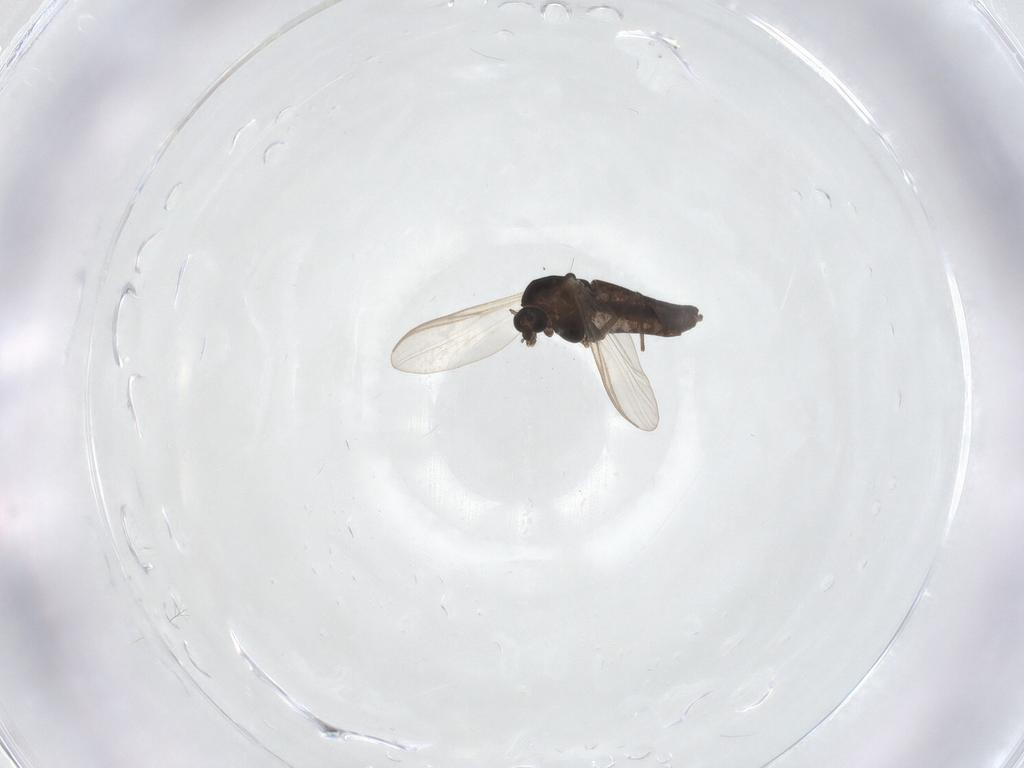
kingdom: Animalia
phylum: Arthropoda
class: Insecta
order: Diptera
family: Chironomidae
